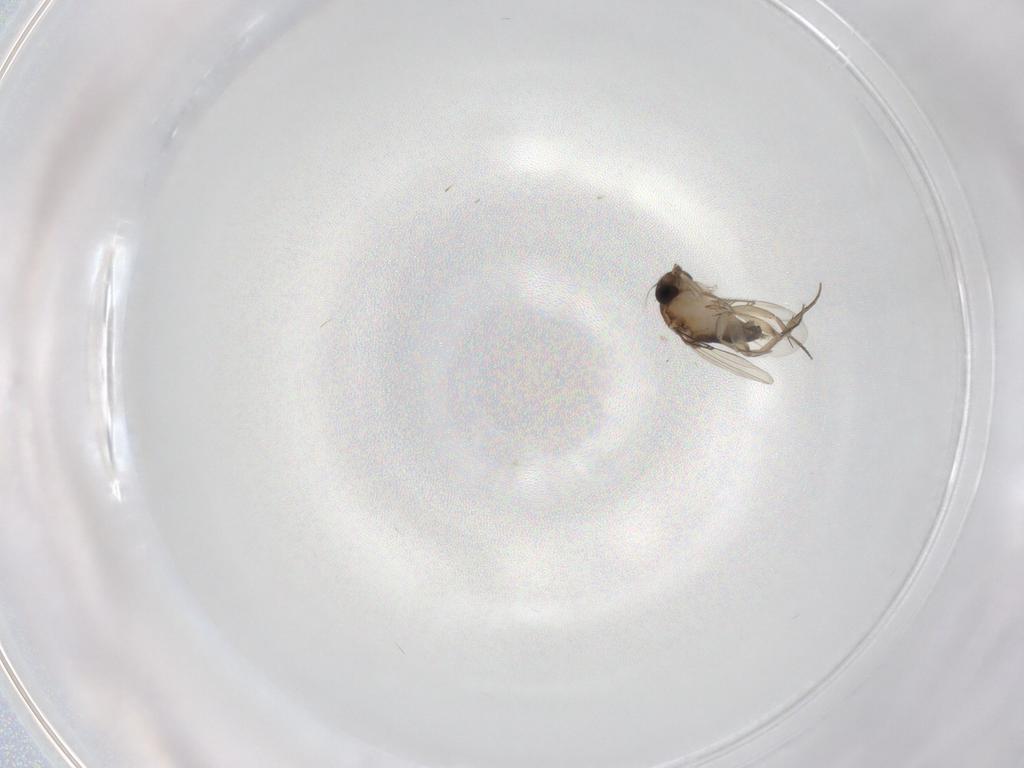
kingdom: Animalia
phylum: Arthropoda
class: Insecta
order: Diptera
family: Phoridae
